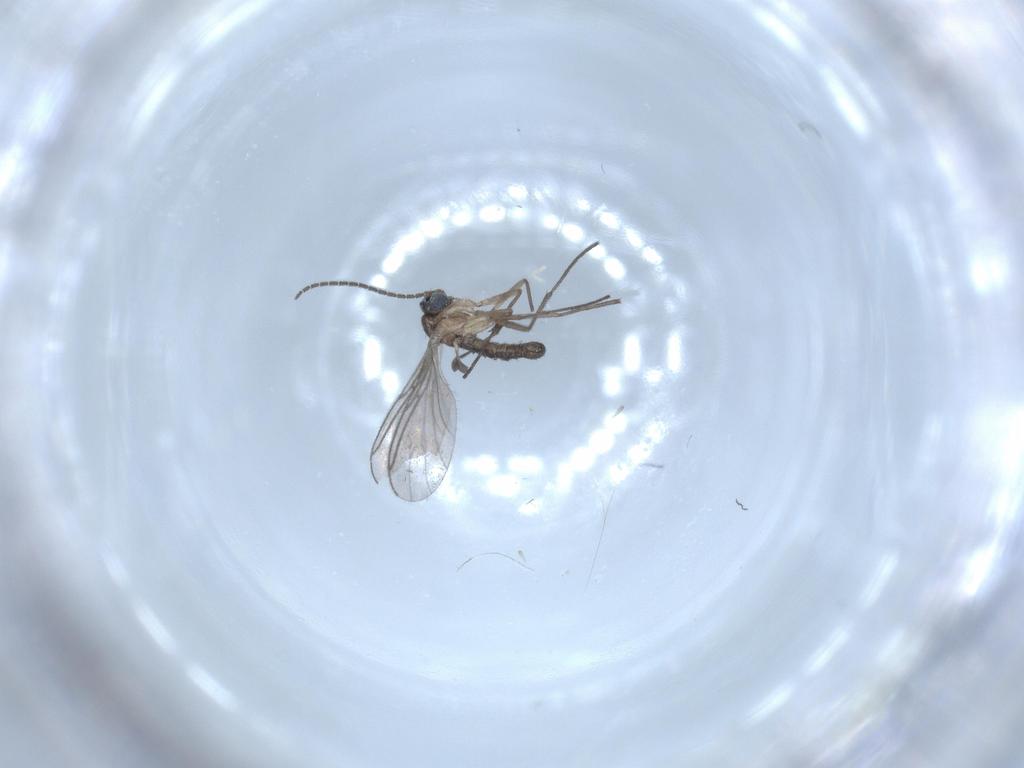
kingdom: Animalia
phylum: Arthropoda
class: Insecta
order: Diptera
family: Sciaridae
